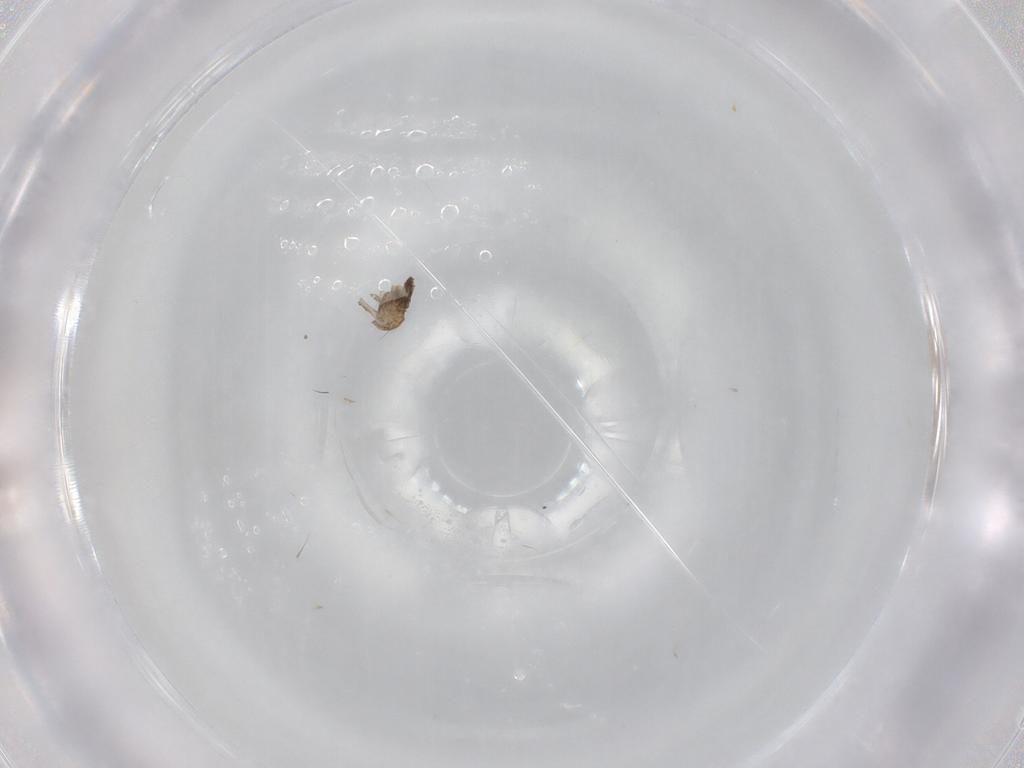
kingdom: Animalia
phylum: Arthropoda
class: Insecta
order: Diptera
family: Cecidomyiidae
